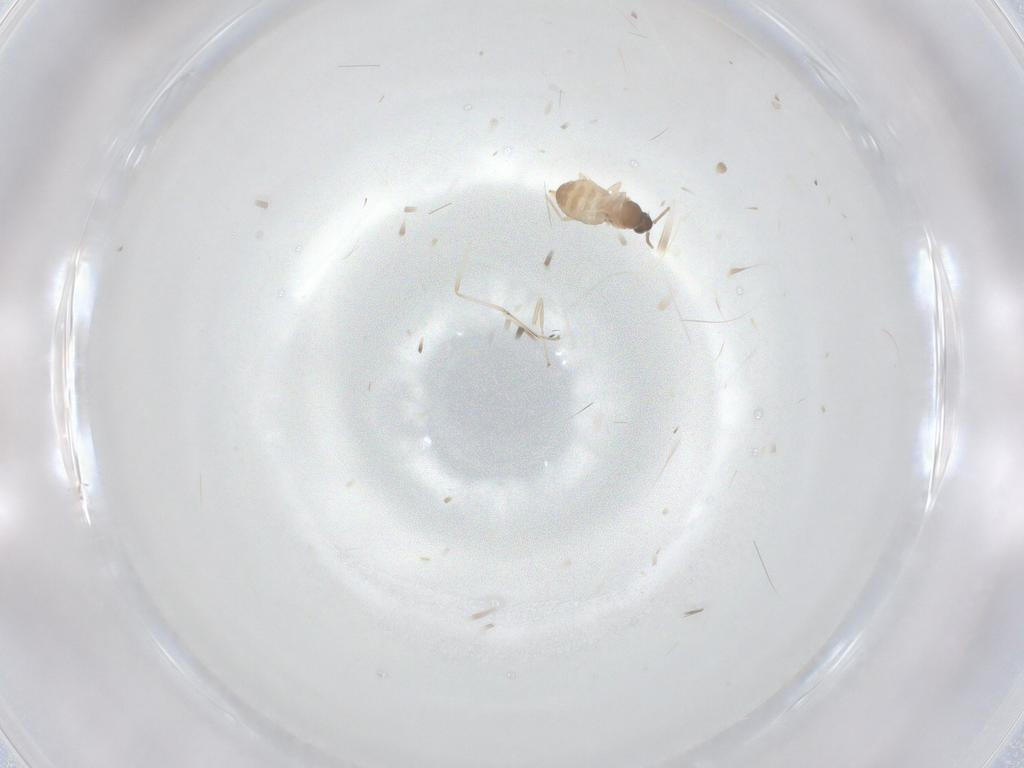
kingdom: Animalia
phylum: Arthropoda
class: Insecta
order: Diptera
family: Cecidomyiidae
